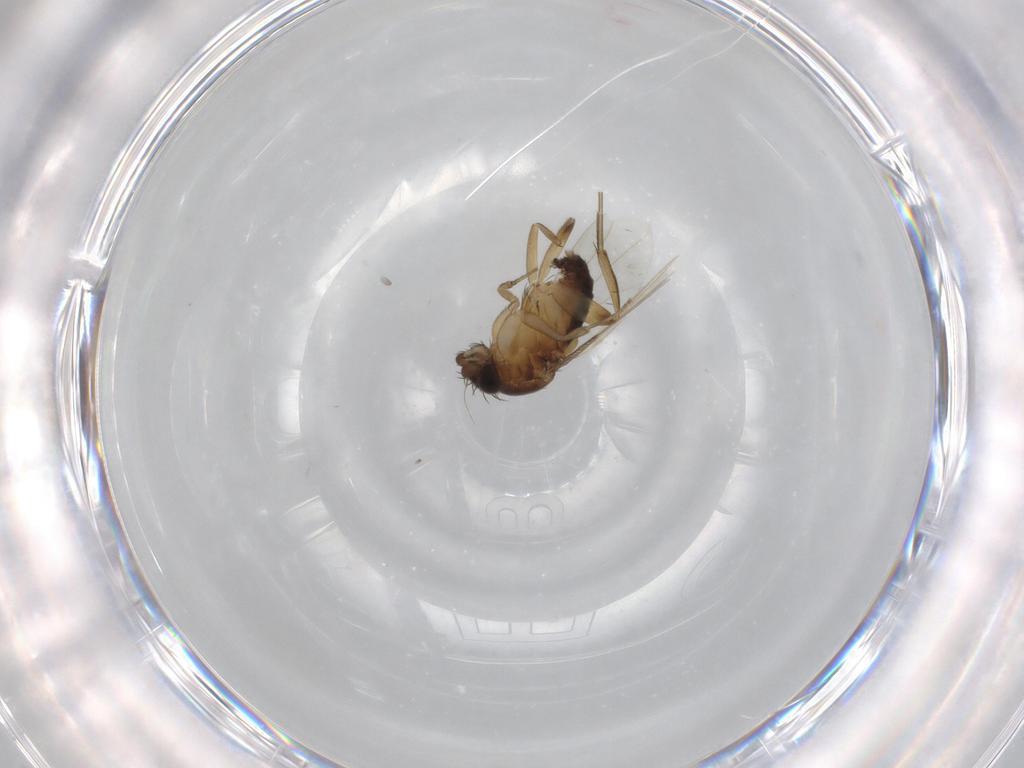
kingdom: Animalia
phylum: Arthropoda
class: Insecta
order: Diptera
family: Phoridae
